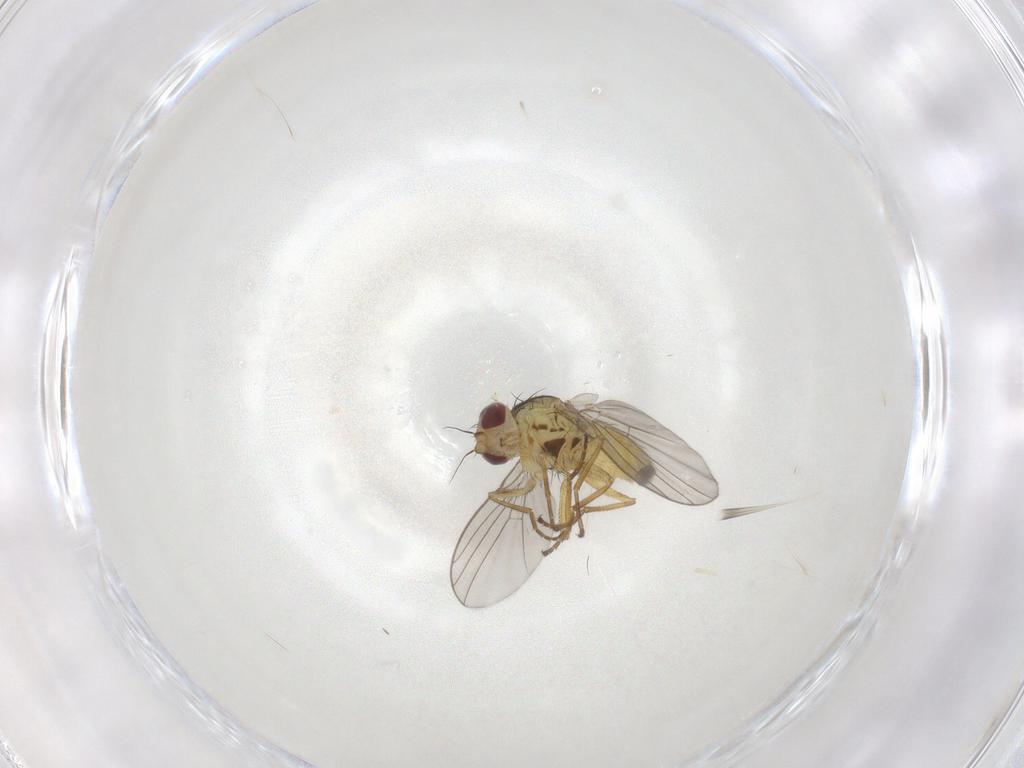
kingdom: Animalia
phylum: Arthropoda
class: Insecta
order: Diptera
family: Agromyzidae
